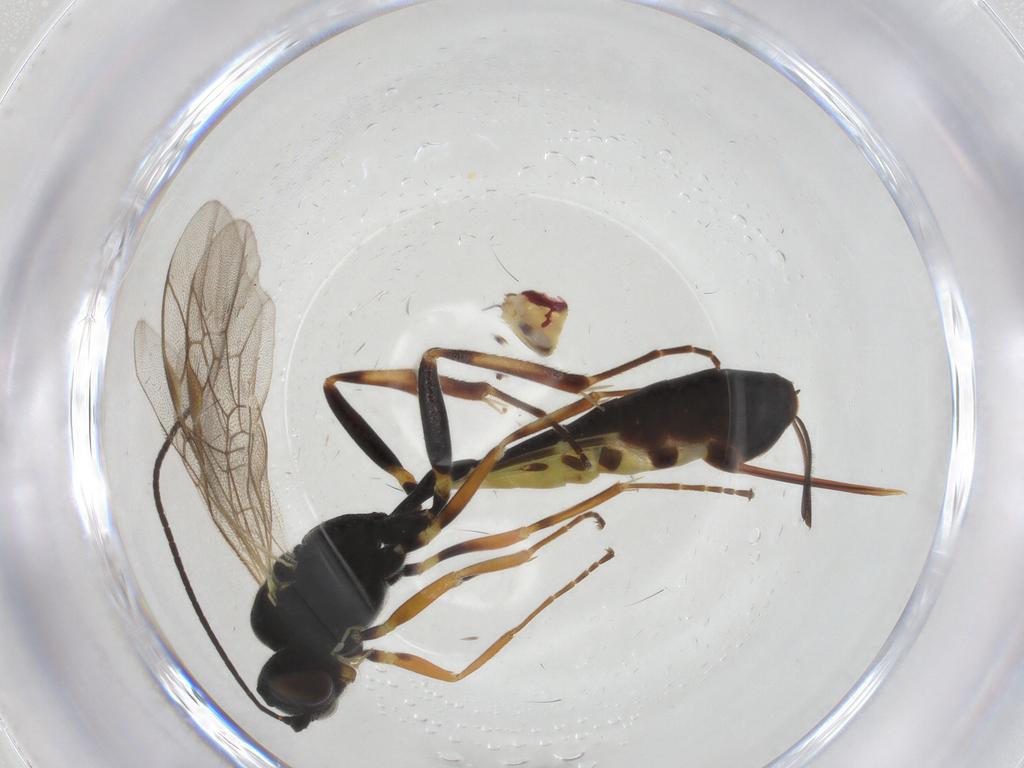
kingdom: Animalia
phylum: Arthropoda
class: Insecta
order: Hymenoptera
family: Ichneumonidae
